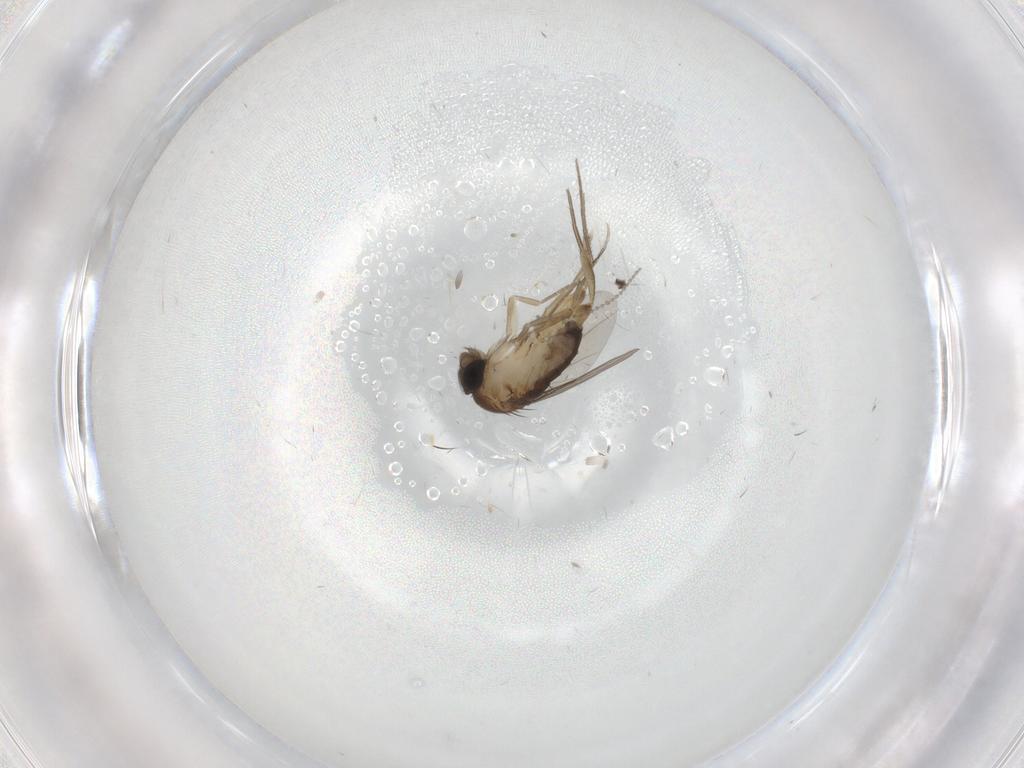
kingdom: Animalia
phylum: Arthropoda
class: Insecta
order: Diptera
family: Phoridae
